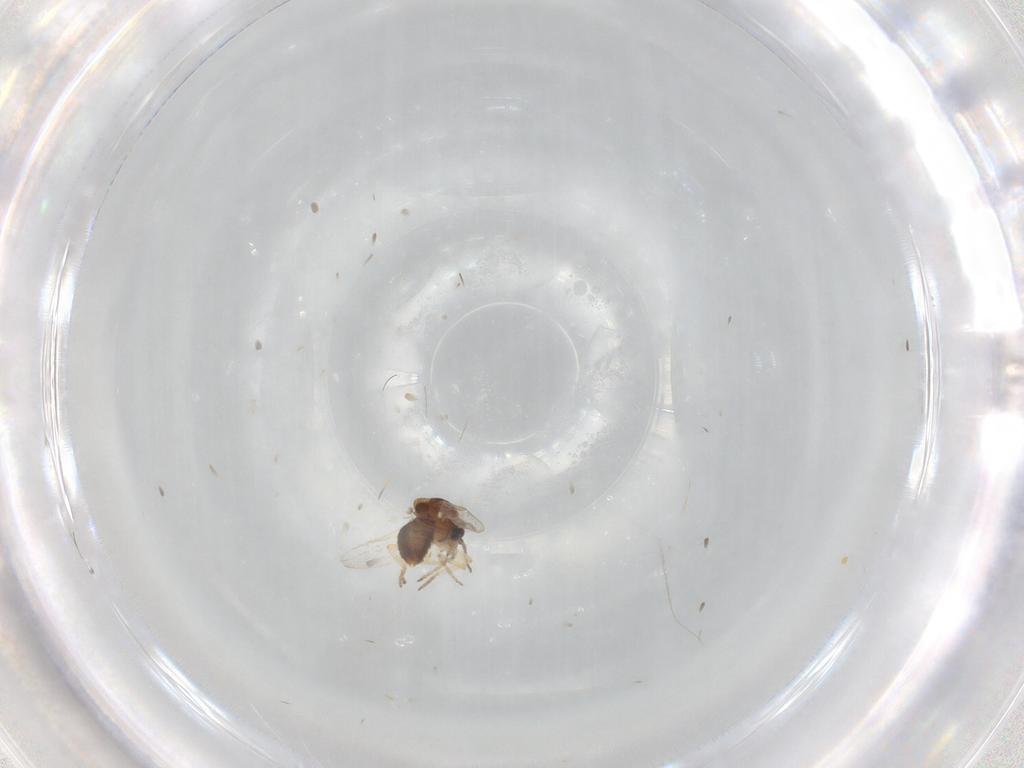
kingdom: Animalia
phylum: Arthropoda
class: Insecta
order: Diptera
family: Ceratopogonidae
